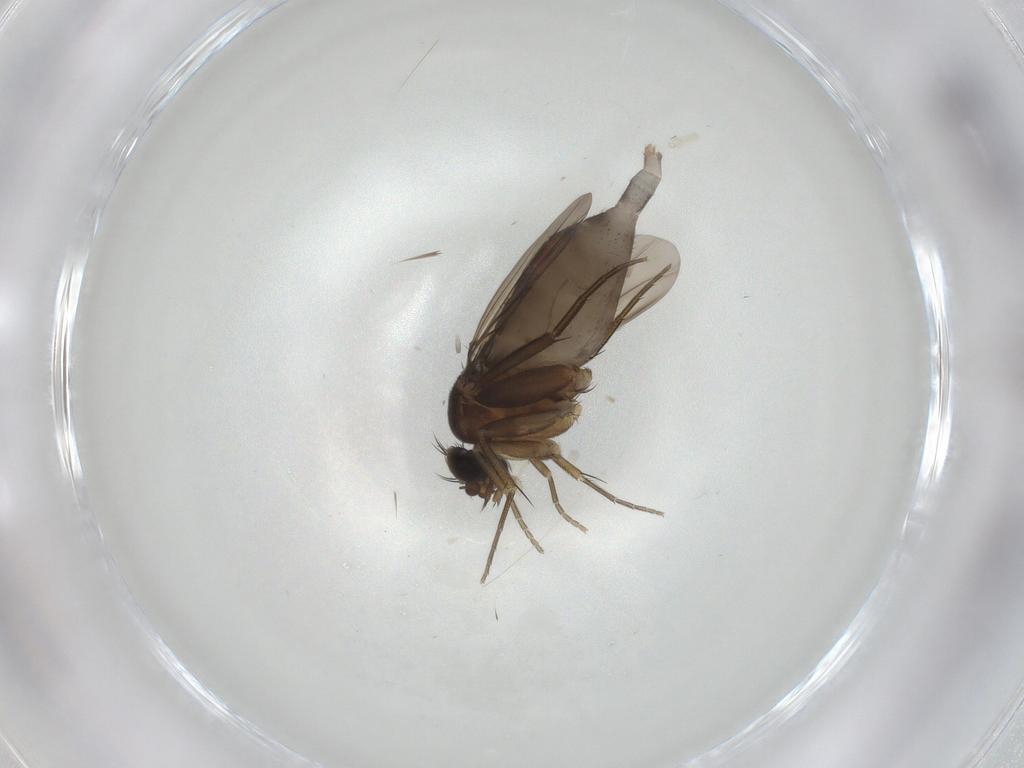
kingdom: Animalia
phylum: Arthropoda
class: Insecta
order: Diptera
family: Phoridae
